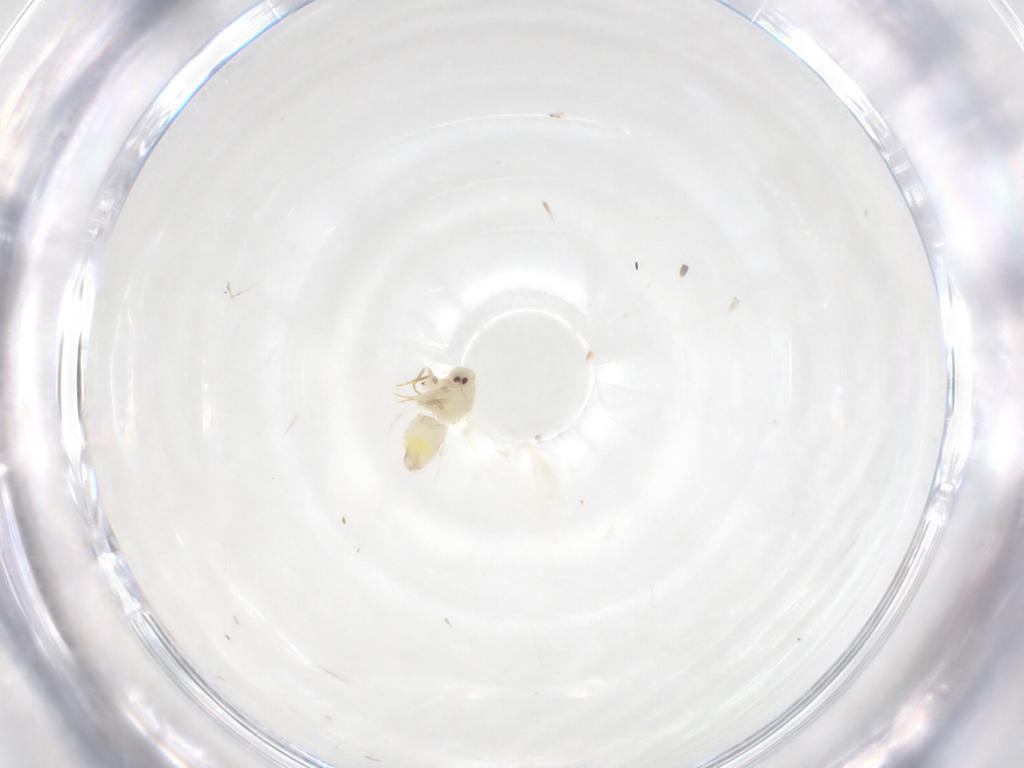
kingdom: Animalia
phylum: Arthropoda
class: Insecta
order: Hemiptera
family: Aleyrodidae
